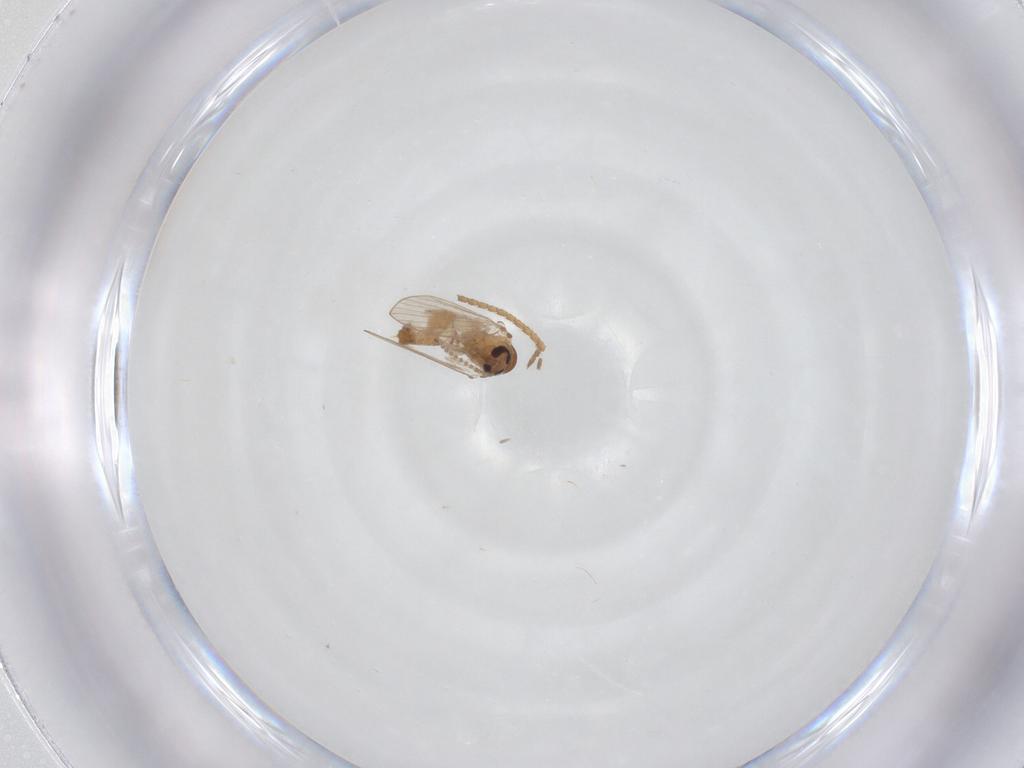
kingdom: Animalia
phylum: Arthropoda
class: Insecta
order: Diptera
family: Psychodidae
